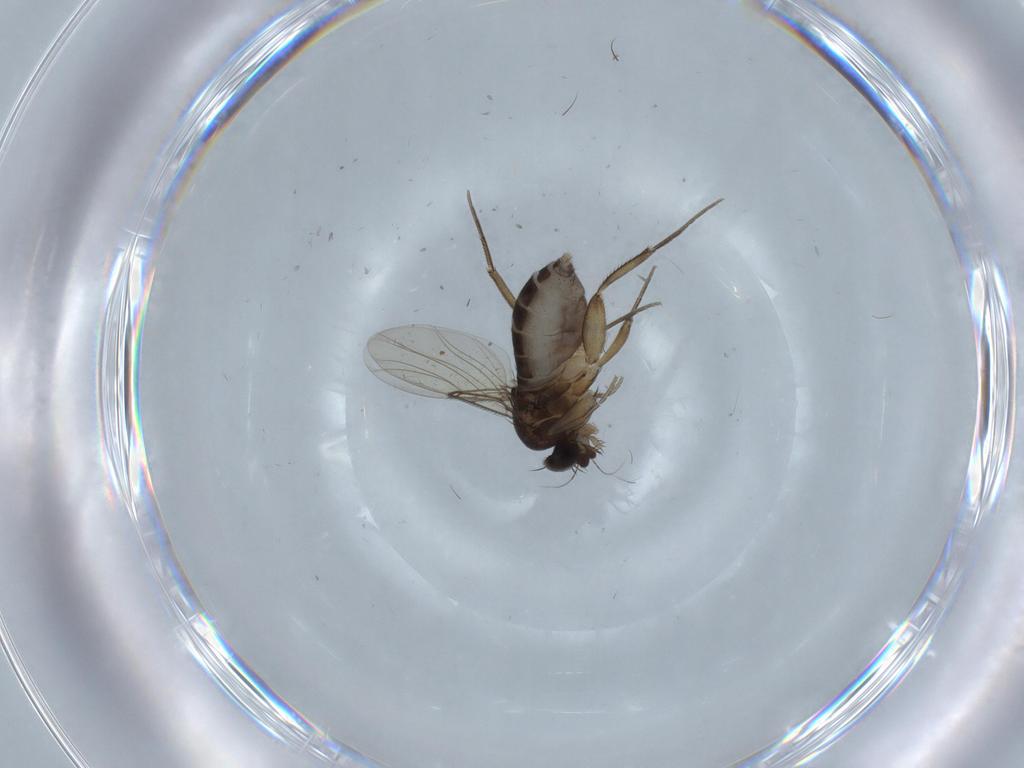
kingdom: Animalia
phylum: Arthropoda
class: Insecta
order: Diptera
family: Phoridae
